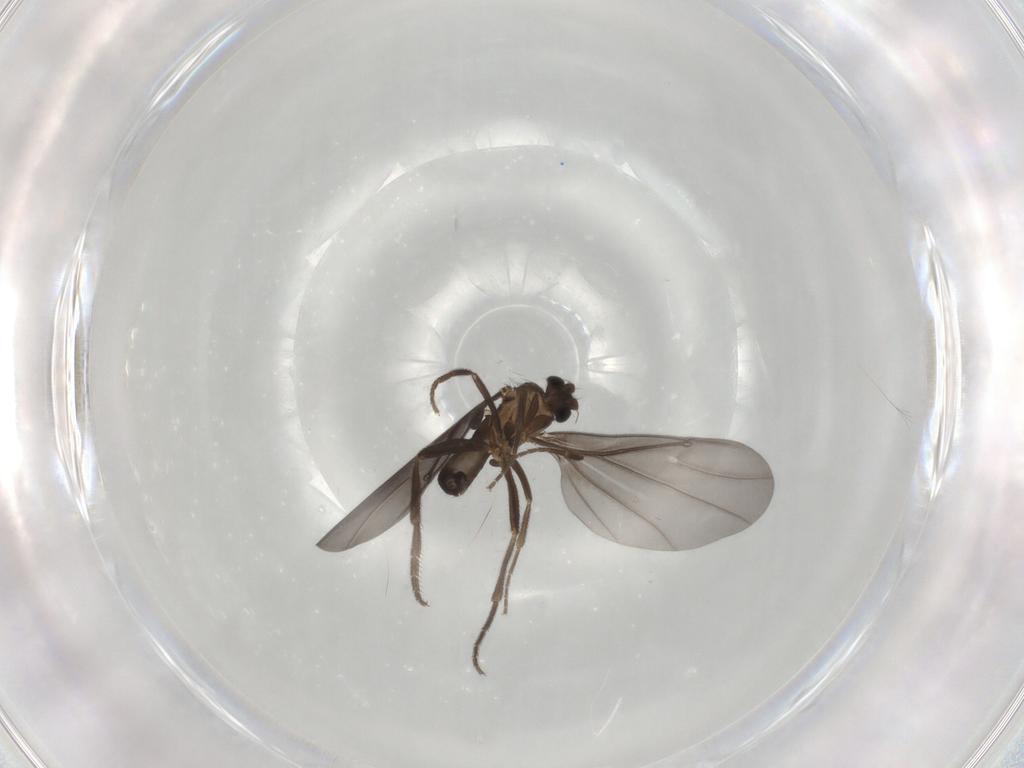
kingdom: Animalia
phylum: Arthropoda
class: Insecta
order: Diptera
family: Phoridae
